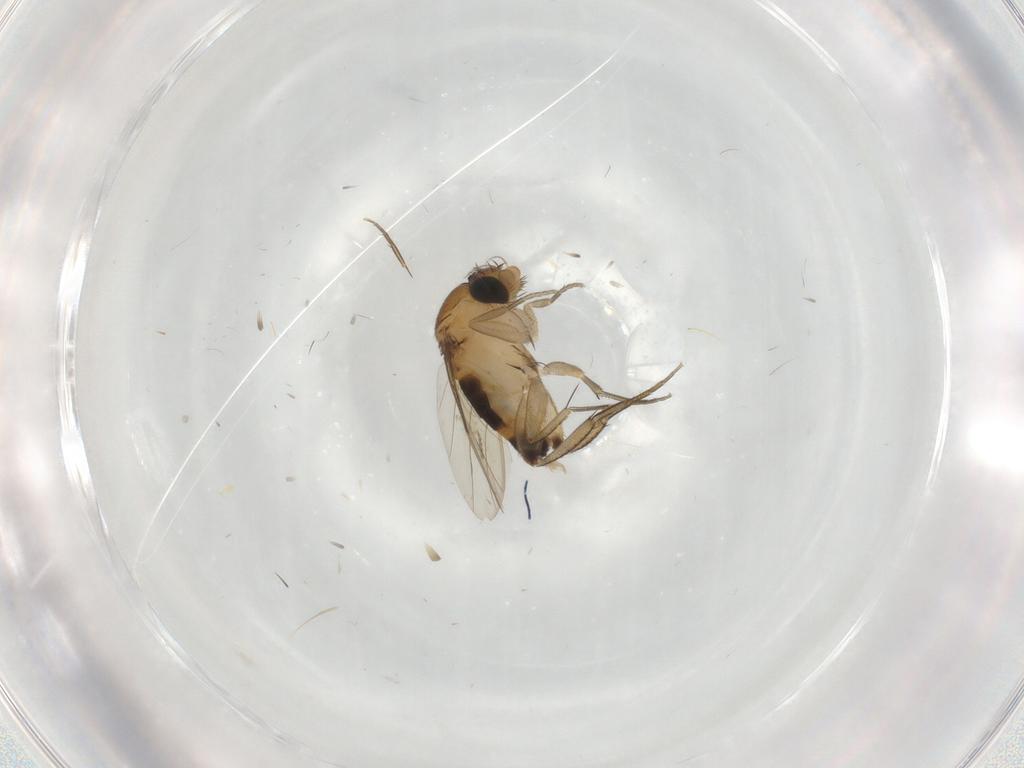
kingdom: Animalia
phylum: Arthropoda
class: Insecta
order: Diptera
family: Phoridae
